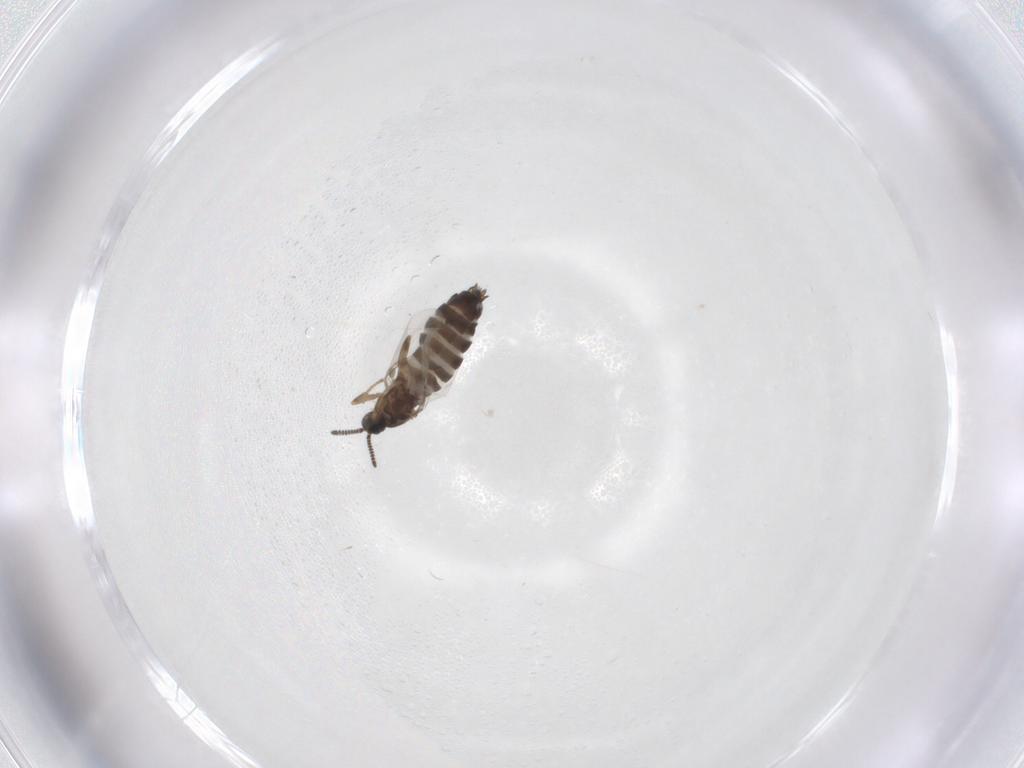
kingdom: Animalia
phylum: Arthropoda
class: Insecta
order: Diptera
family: Scatopsidae
